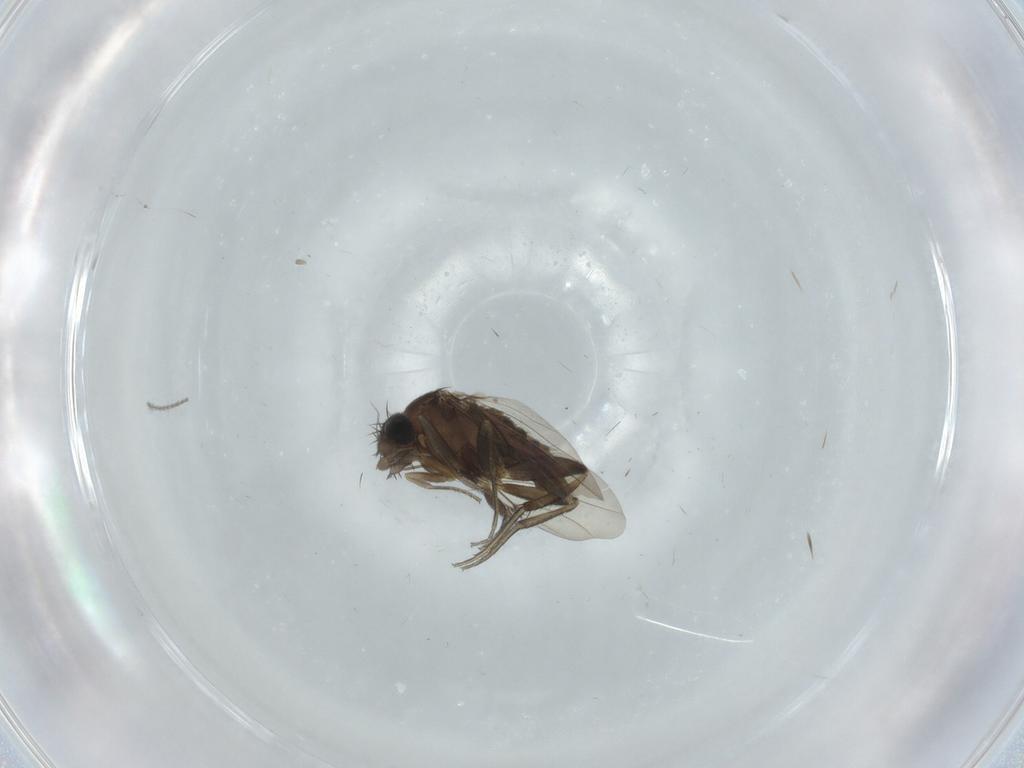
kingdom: Animalia
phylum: Arthropoda
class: Insecta
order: Diptera
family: Phoridae
